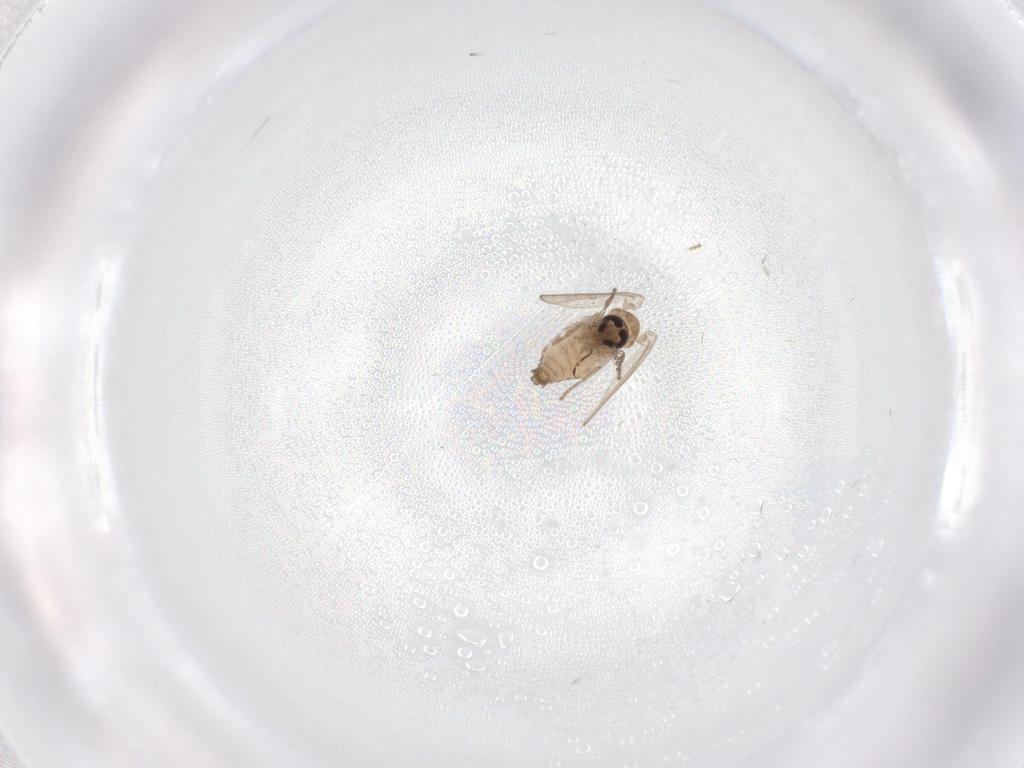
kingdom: Animalia
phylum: Arthropoda
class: Insecta
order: Diptera
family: Psychodidae
